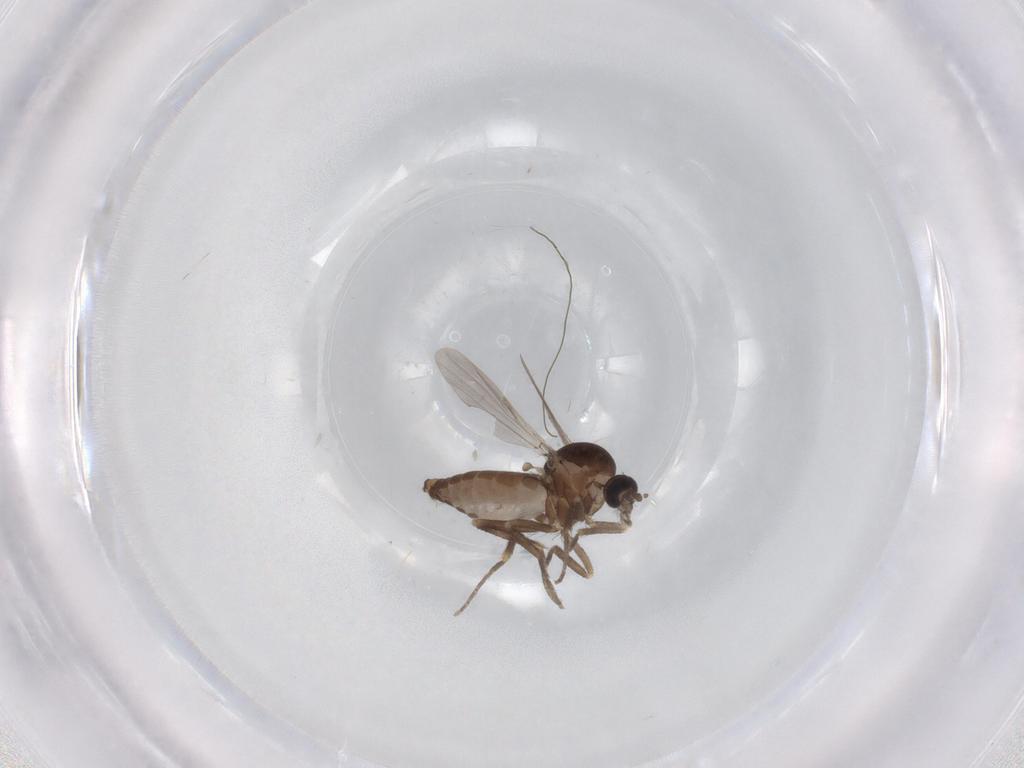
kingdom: Animalia
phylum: Arthropoda
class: Insecta
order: Diptera
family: Ceratopogonidae
